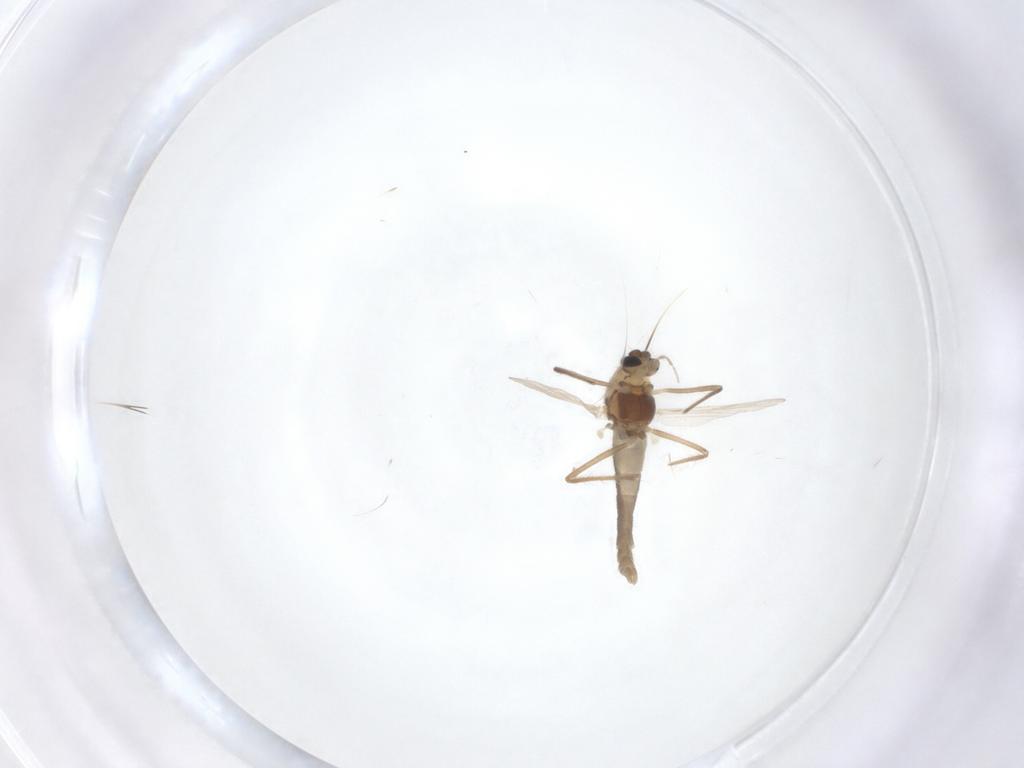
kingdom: Animalia
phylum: Arthropoda
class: Insecta
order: Diptera
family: Chironomidae
